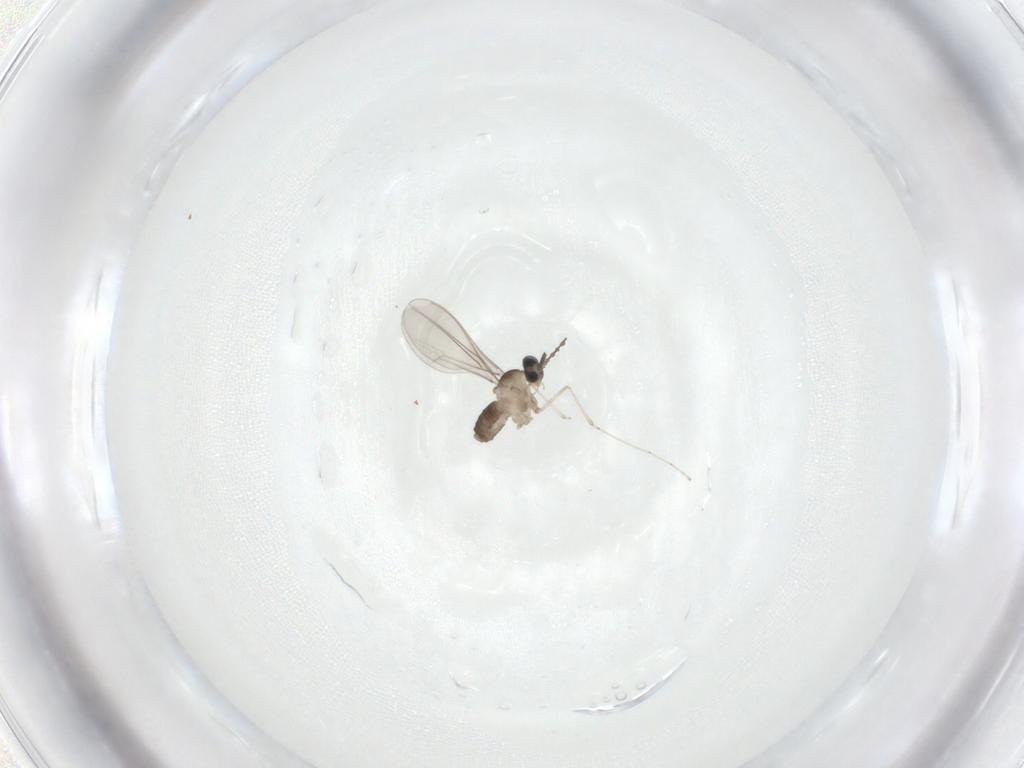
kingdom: Animalia
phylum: Arthropoda
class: Insecta
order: Diptera
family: Cecidomyiidae
